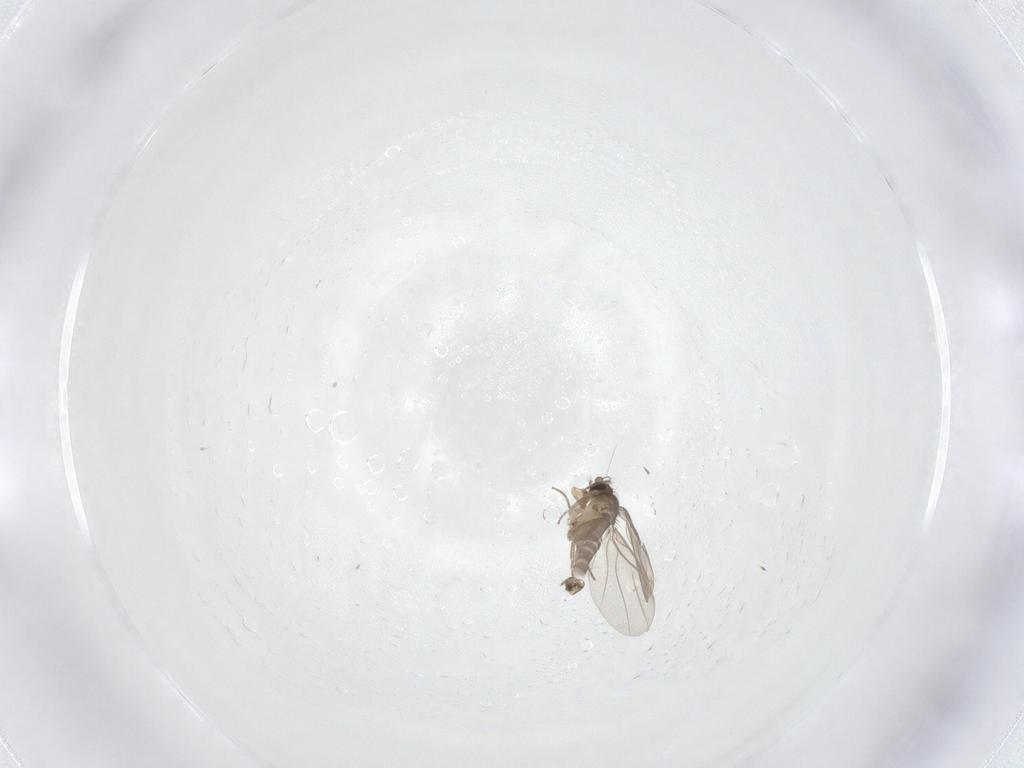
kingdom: Animalia
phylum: Arthropoda
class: Insecta
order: Diptera
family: Phoridae
